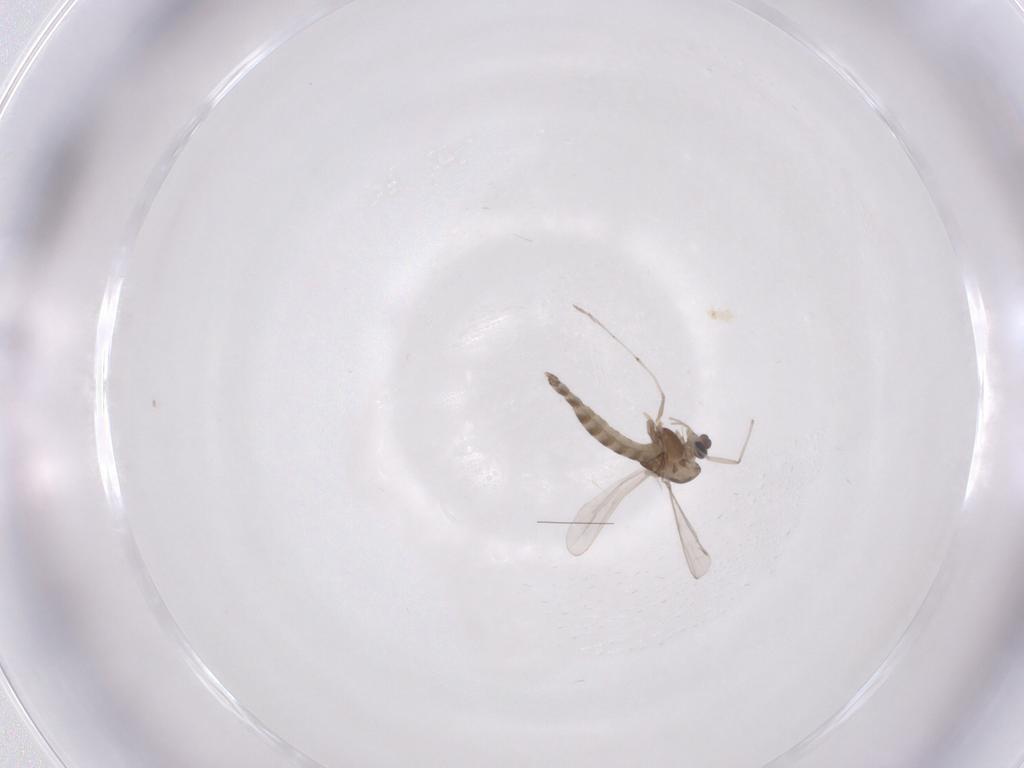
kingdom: Animalia
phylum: Arthropoda
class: Insecta
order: Diptera
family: Chironomidae
